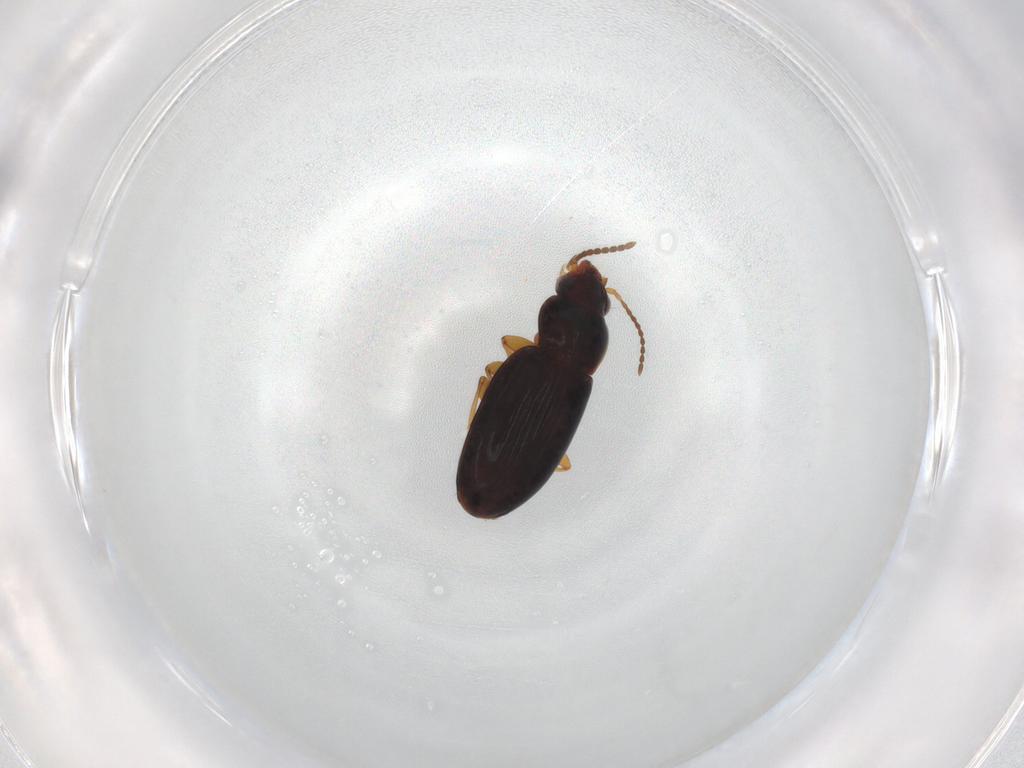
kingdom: Animalia
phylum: Arthropoda
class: Insecta
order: Coleoptera
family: Carabidae
